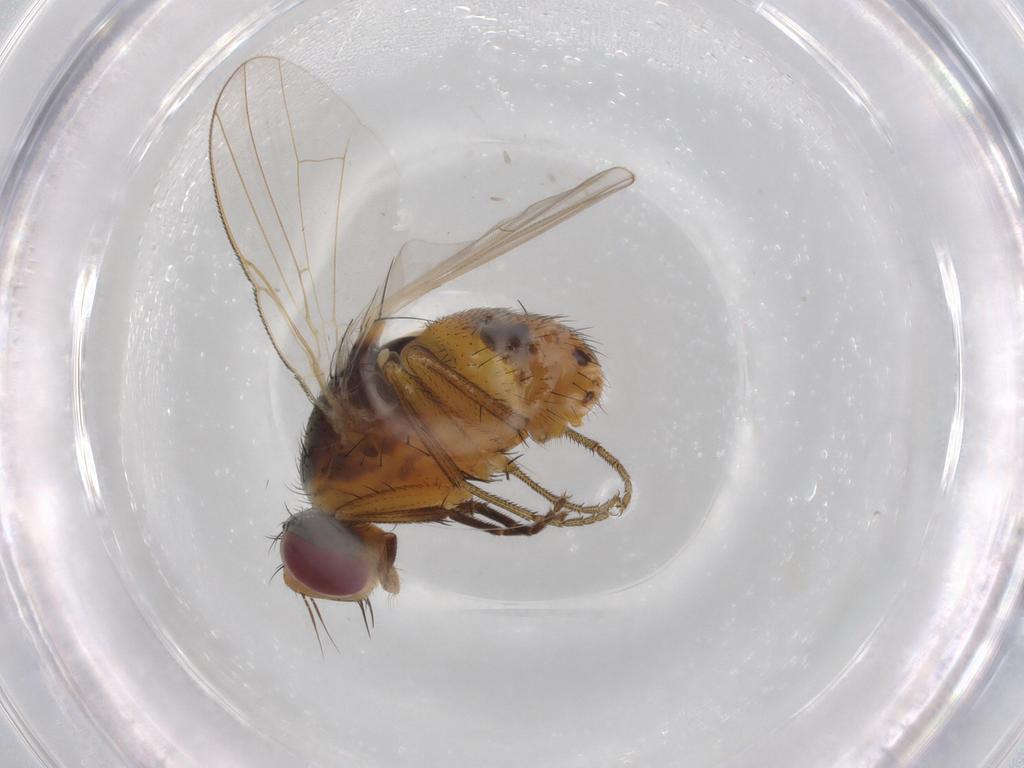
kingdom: Animalia
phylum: Arthropoda
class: Insecta
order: Diptera
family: Muscidae
